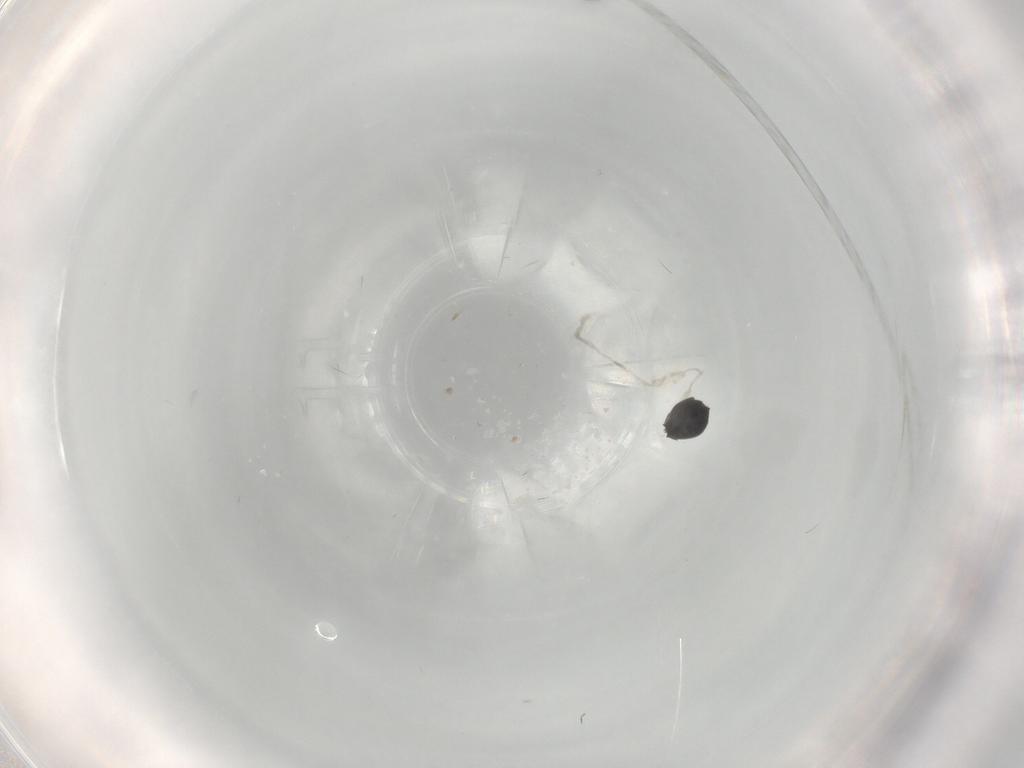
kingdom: Animalia
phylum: Arthropoda
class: Insecta
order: Hymenoptera
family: Scelionidae
